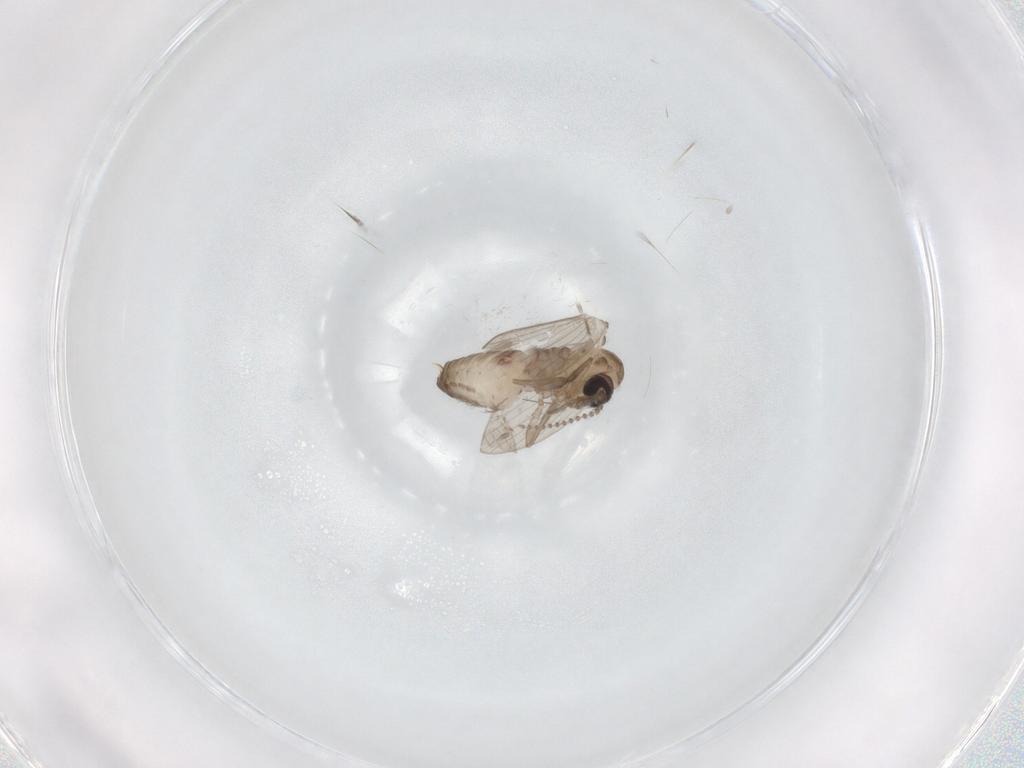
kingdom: Animalia
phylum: Arthropoda
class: Insecta
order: Diptera
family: Psychodidae
